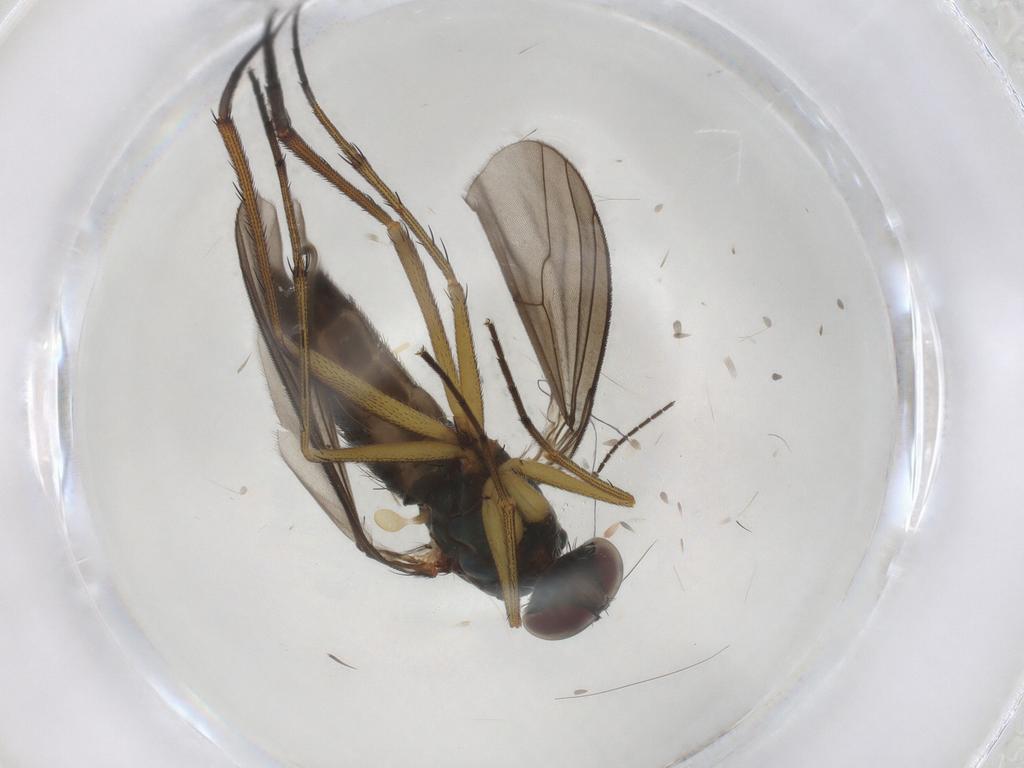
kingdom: Animalia
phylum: Arthropoda
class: Insecta
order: Diptera
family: Dolichopodidae
